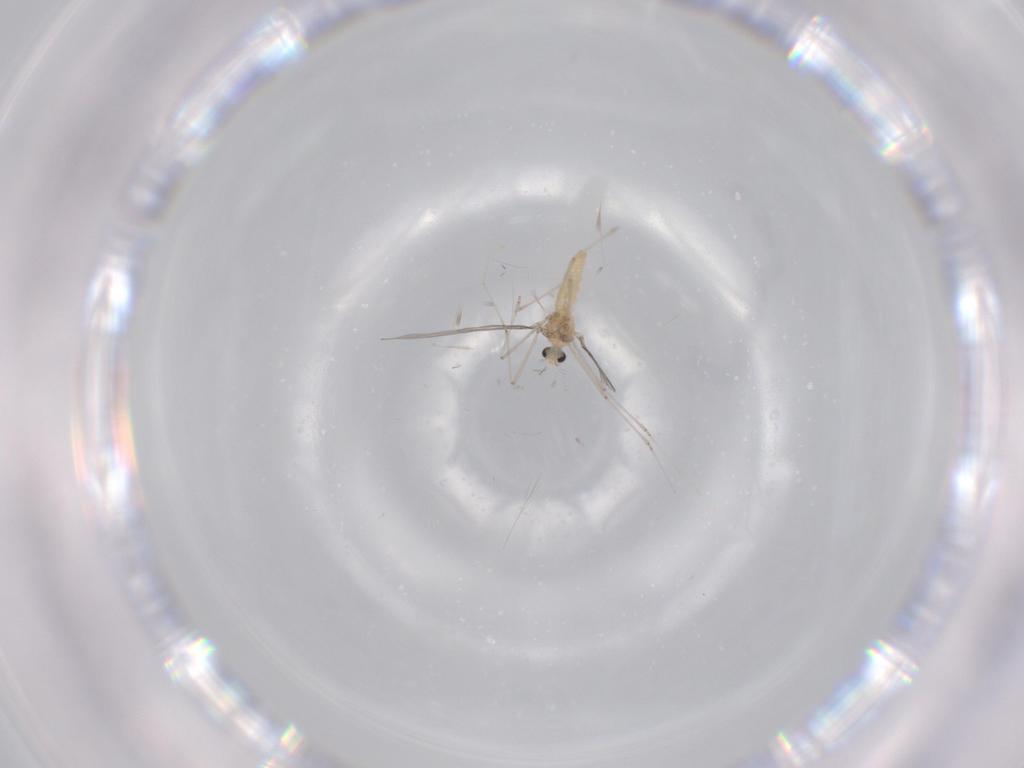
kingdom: Animalia
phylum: Arthropoda
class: Insecta
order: Diptera
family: Cecidomyiidae
